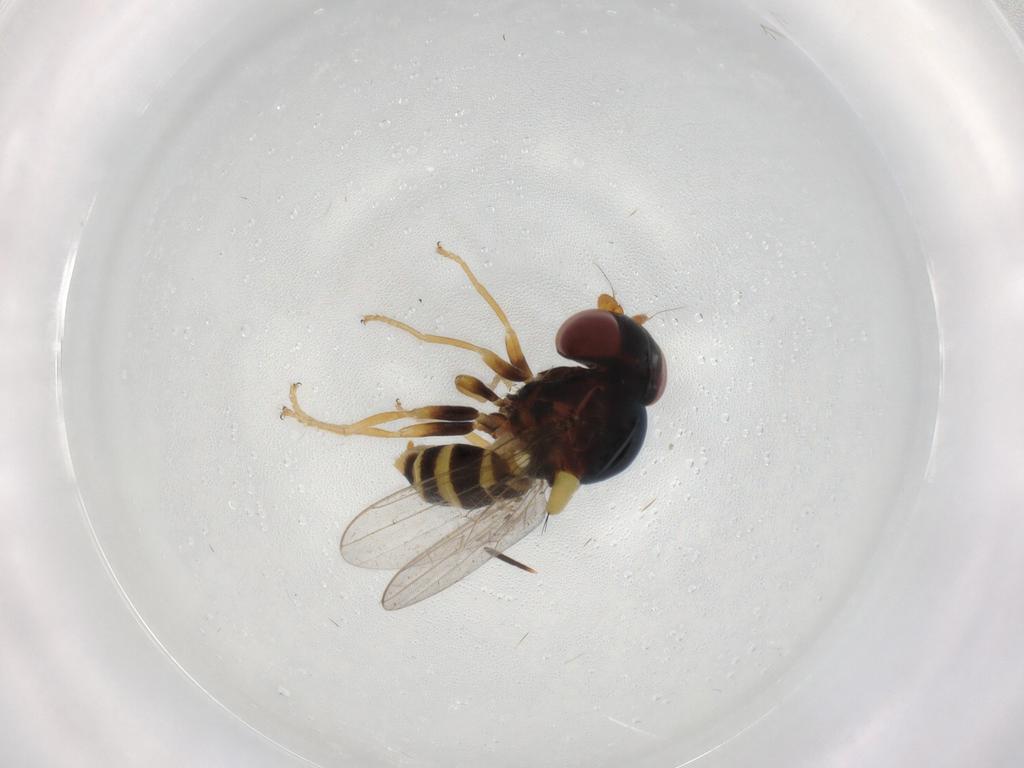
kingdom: Animalia
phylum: Arthropoda
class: Insecta
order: Diptera
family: Chloropidae
